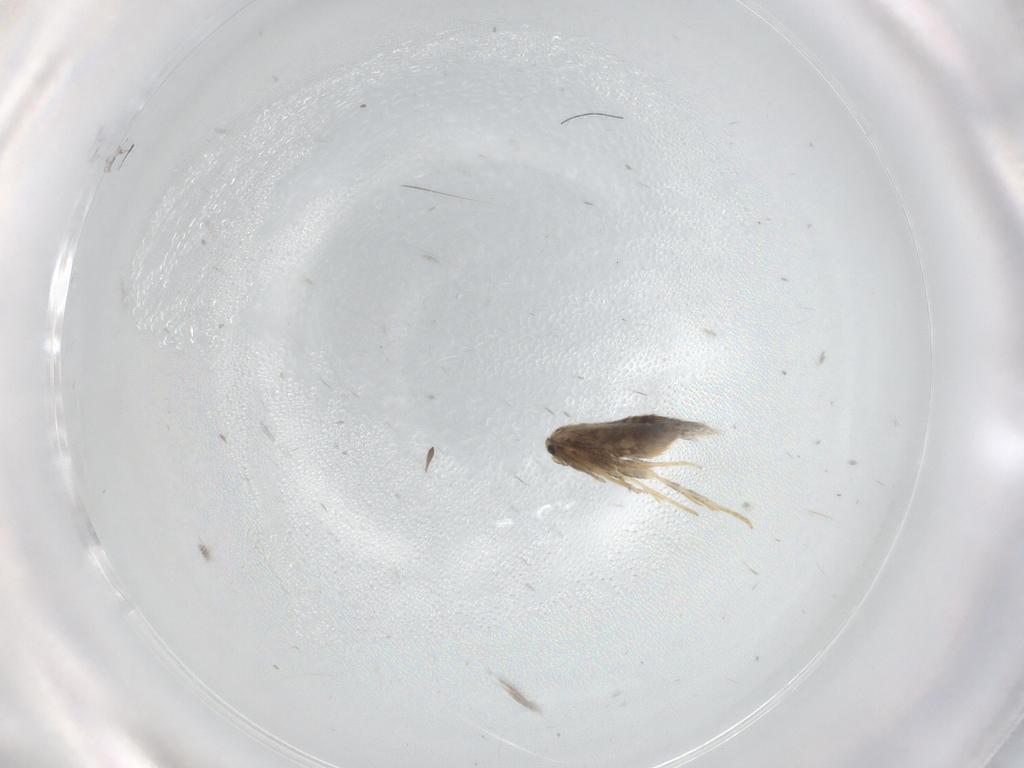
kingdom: Animalia
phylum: Arthropoda
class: Insecta
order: Lepidoptera
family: Nepticulidae
